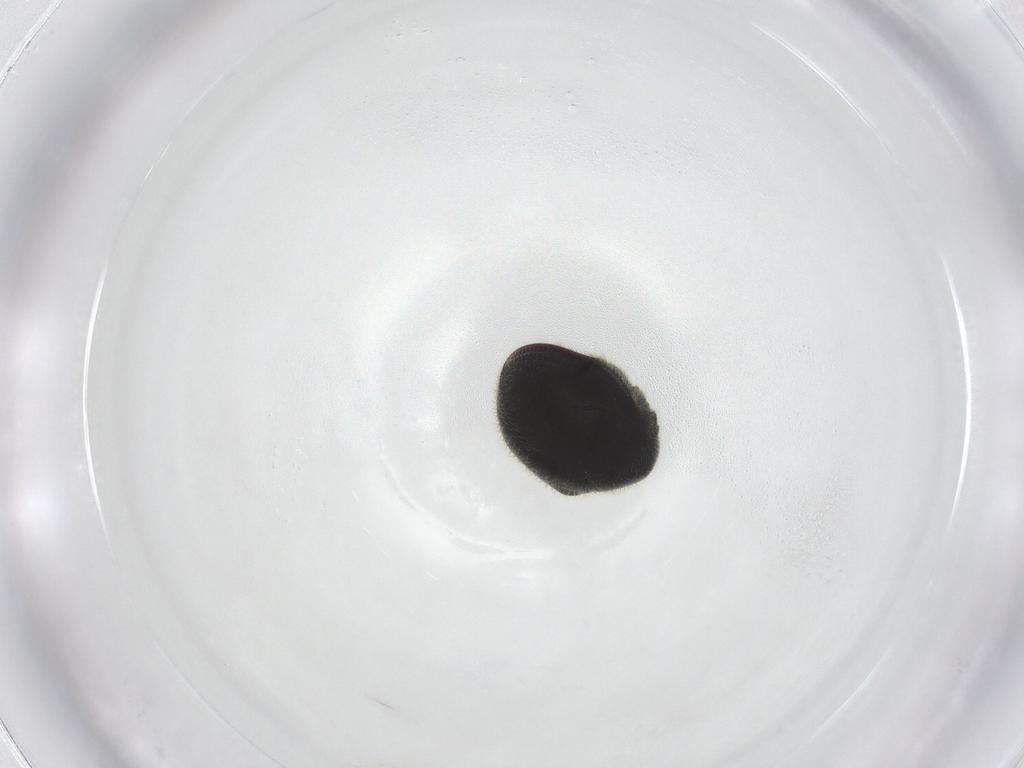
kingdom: Animalia
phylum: Arthropoda
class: Insecta
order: Coleoptera
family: Ptinidae
